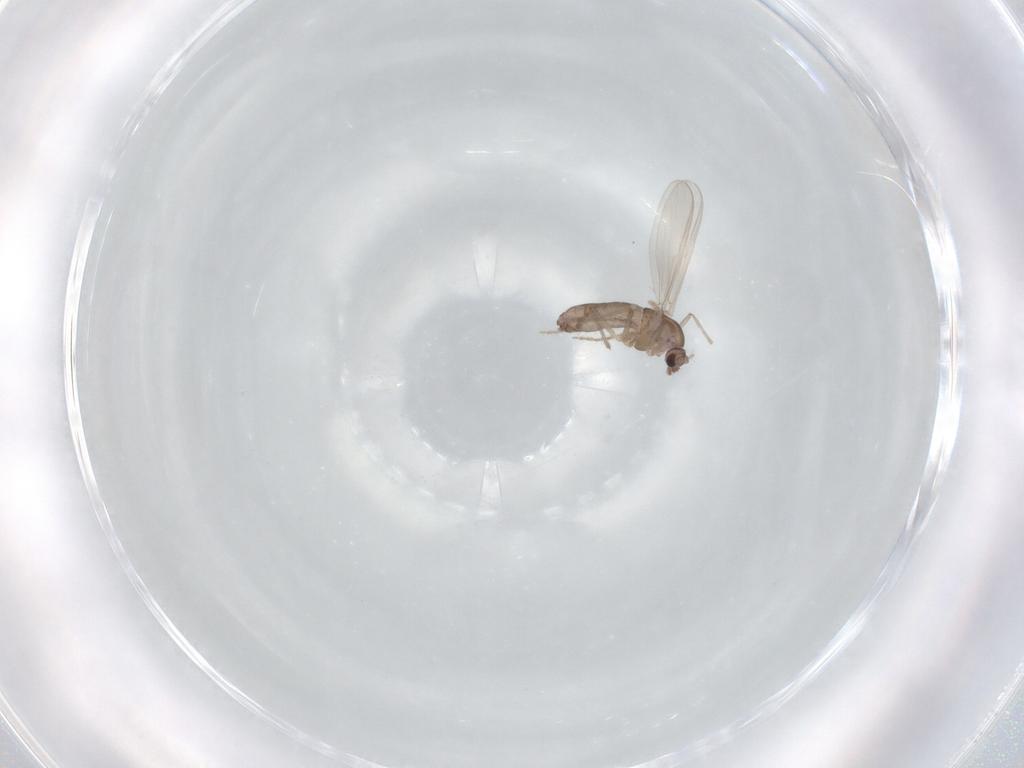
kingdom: Animalia
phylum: Arthropoda
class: Insecta
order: Diptera
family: Chironomidae
